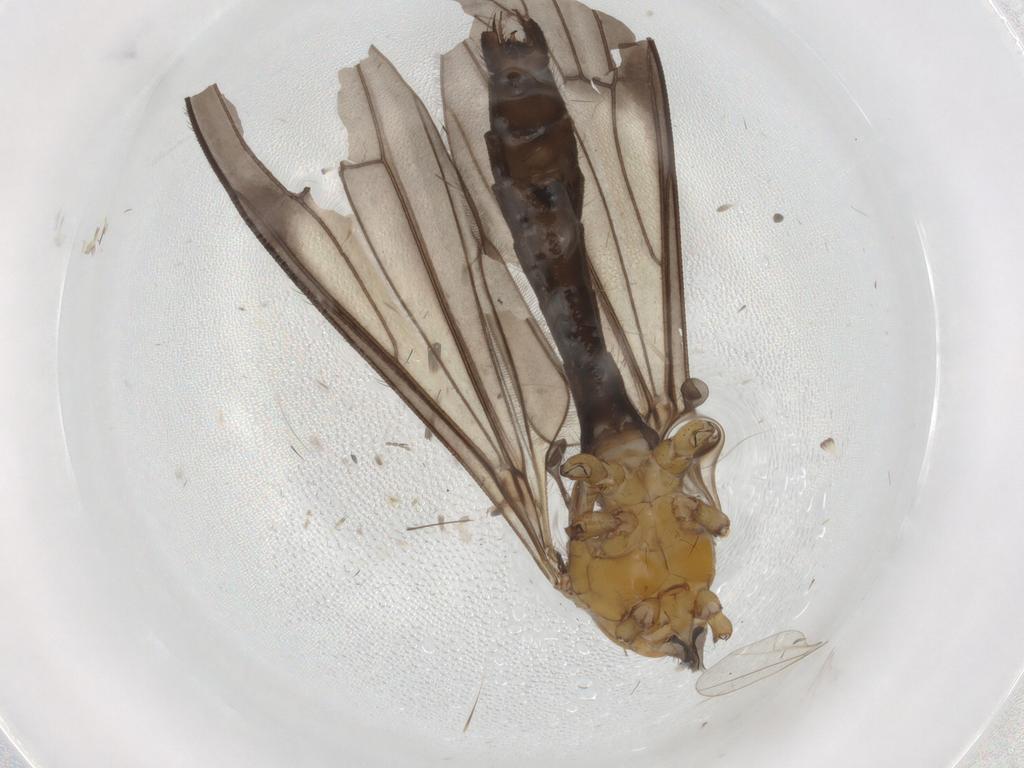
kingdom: Animalia
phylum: Arthropoda
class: Insecta
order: Diptera
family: Limoniidae
